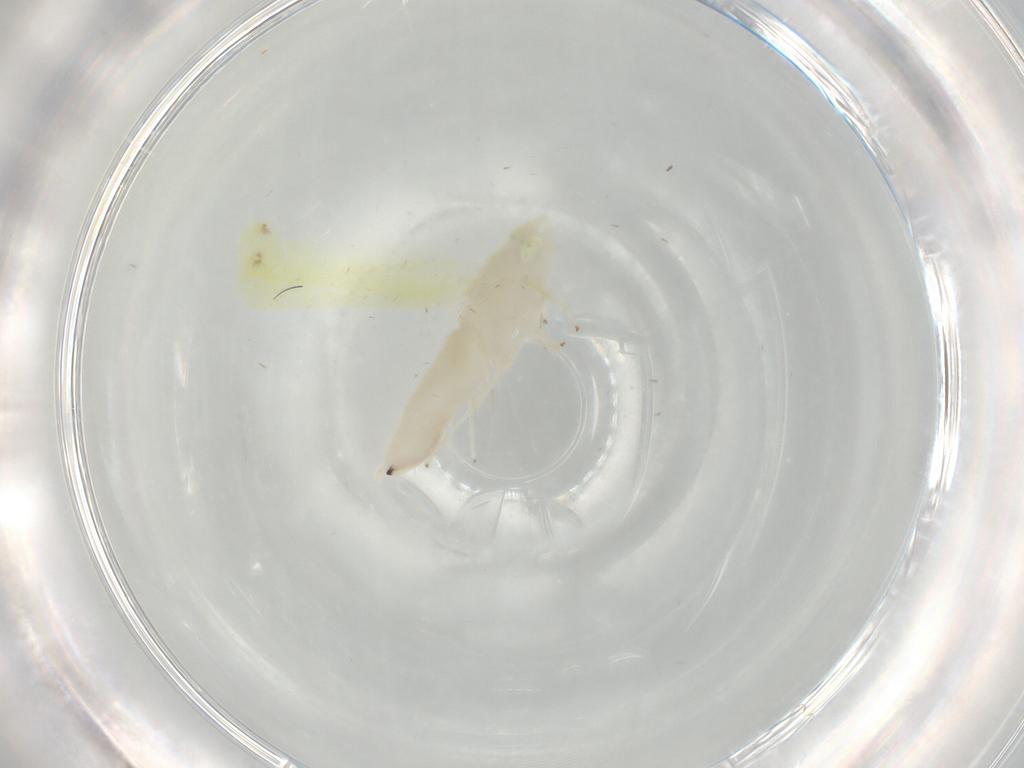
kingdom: Animalia
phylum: Arthropoda
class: Insecta
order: Hemiptera
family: Cicadellidae
